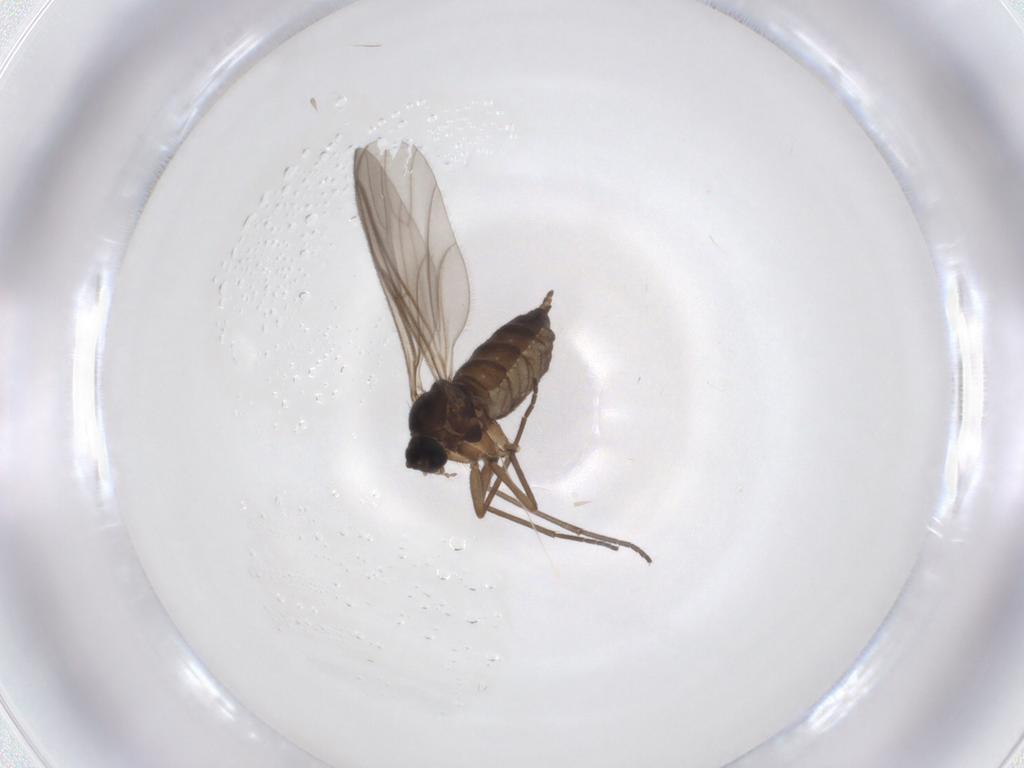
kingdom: Animalia
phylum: Arthropoda
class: Insecta
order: Diptera
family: Sciaridae
